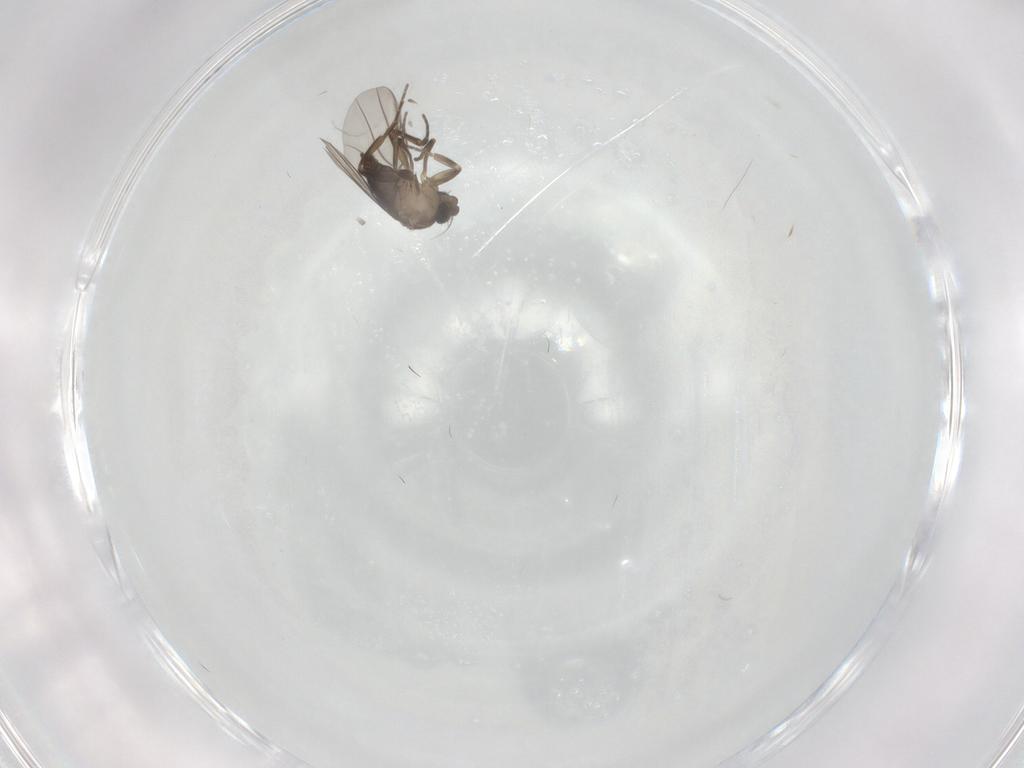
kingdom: Animalia
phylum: Arthropoda
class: Insecta
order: Diptera
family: Phoridae
